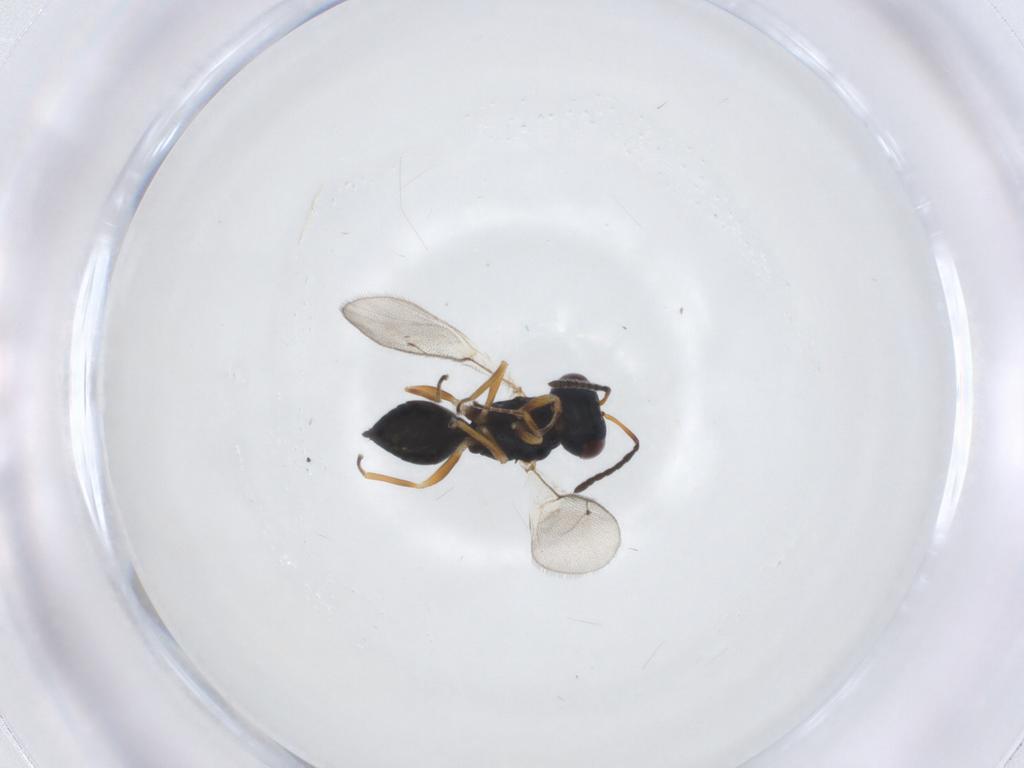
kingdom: Animalia
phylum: Arthropoda
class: Insecta
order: Hymenoptera
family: Pteromalidae
